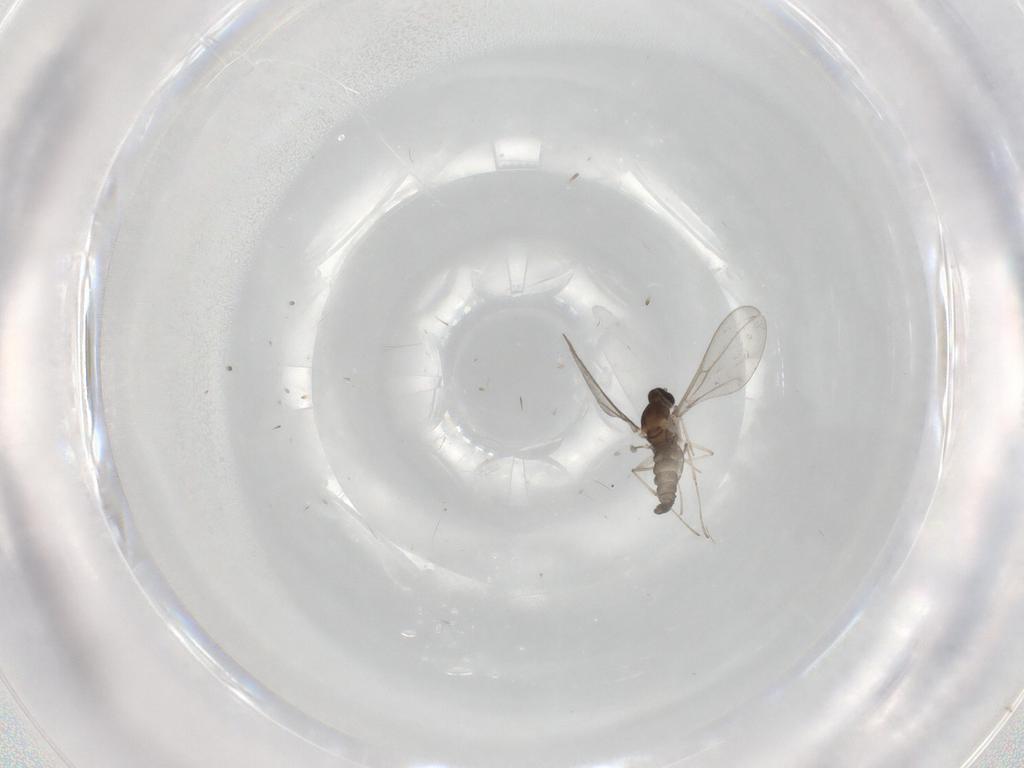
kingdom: Animalia
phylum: Arthropoda
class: Insecta
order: Diptera
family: Cecidomyiidae
